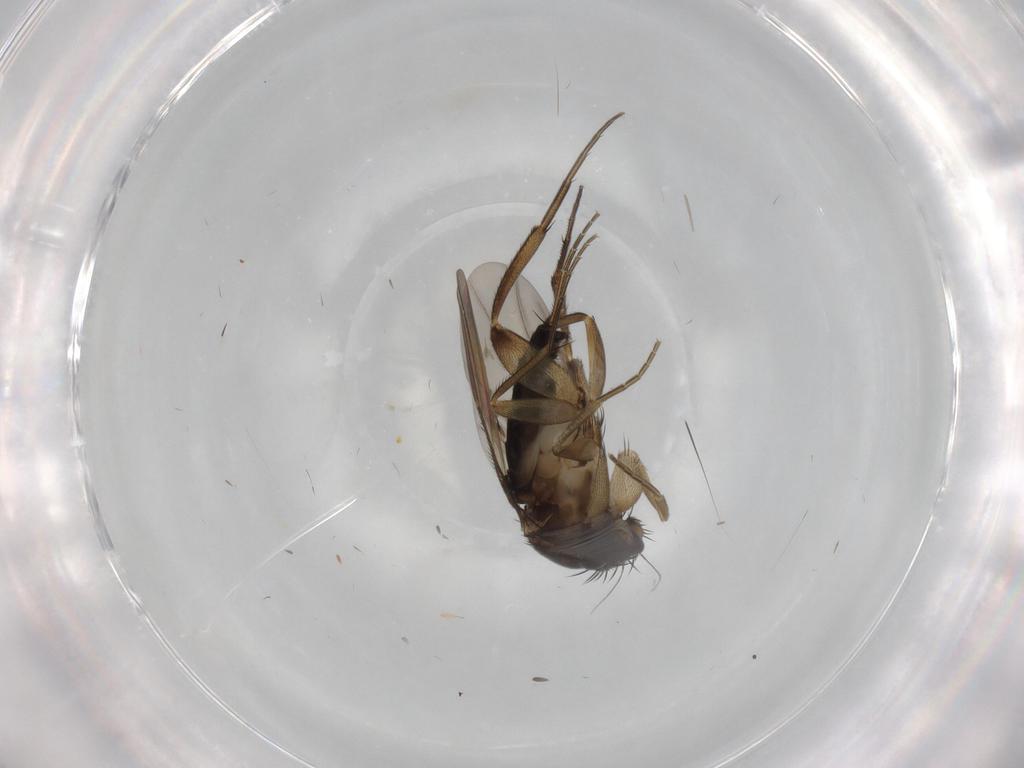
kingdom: Animalia
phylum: Arthropoda
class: Insecta
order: Diptera
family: Phoridae
